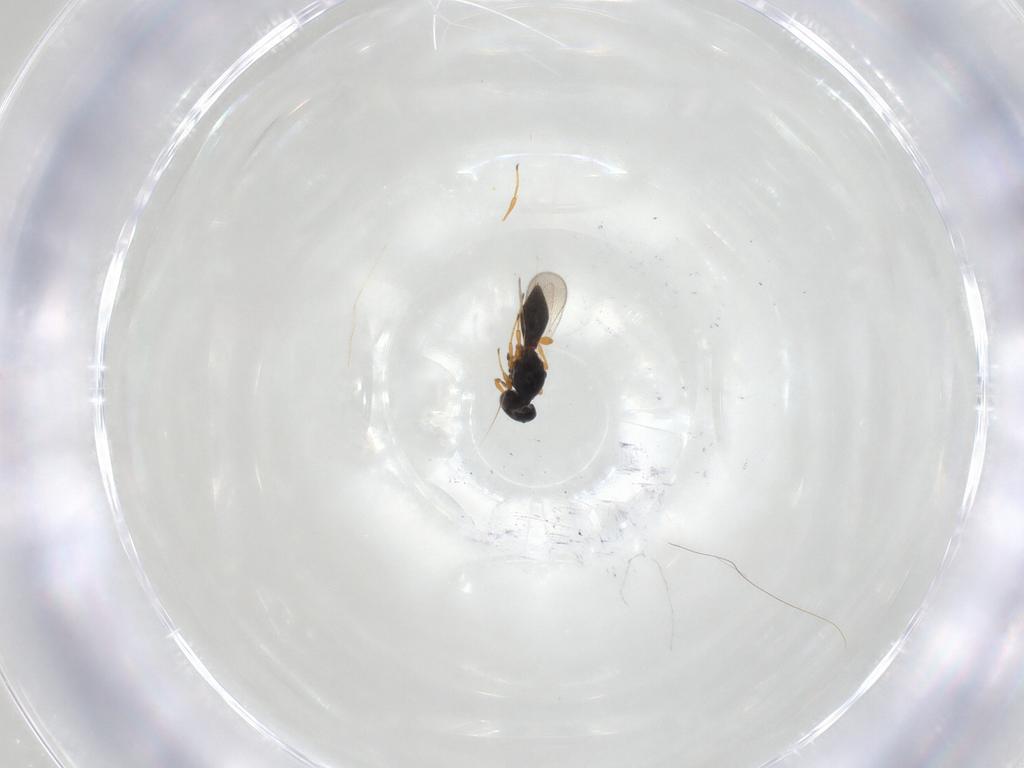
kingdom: Animalia
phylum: Arthropoda
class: Insecta
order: Hymenoptera
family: Platygastridae
